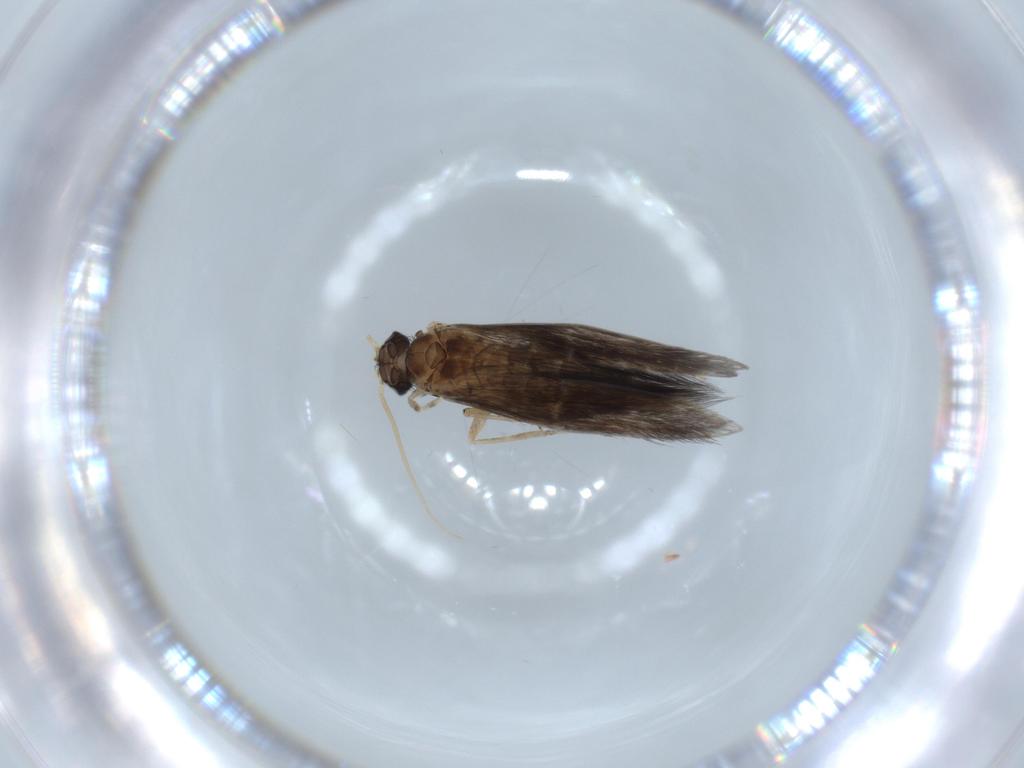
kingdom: Animalia
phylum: Arthropoda
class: Insecta
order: Trichoptera
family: Hydroptilidae
